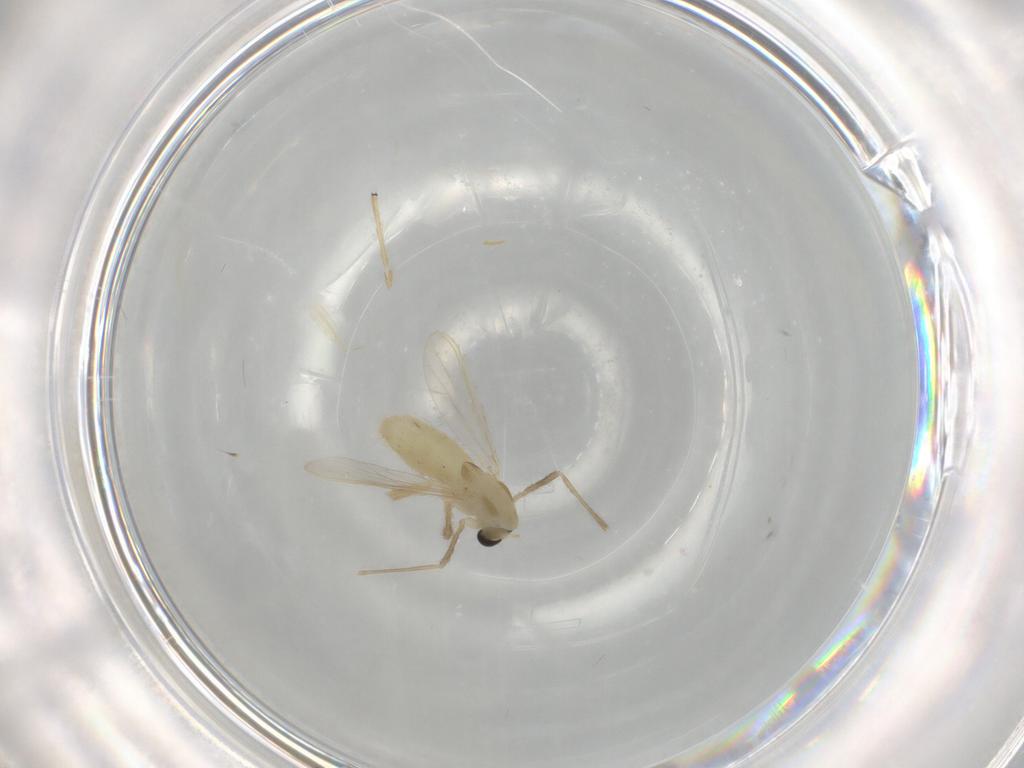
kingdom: Animalia
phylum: Arthropoda
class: Insecta
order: Diptera
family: Chironomidae
